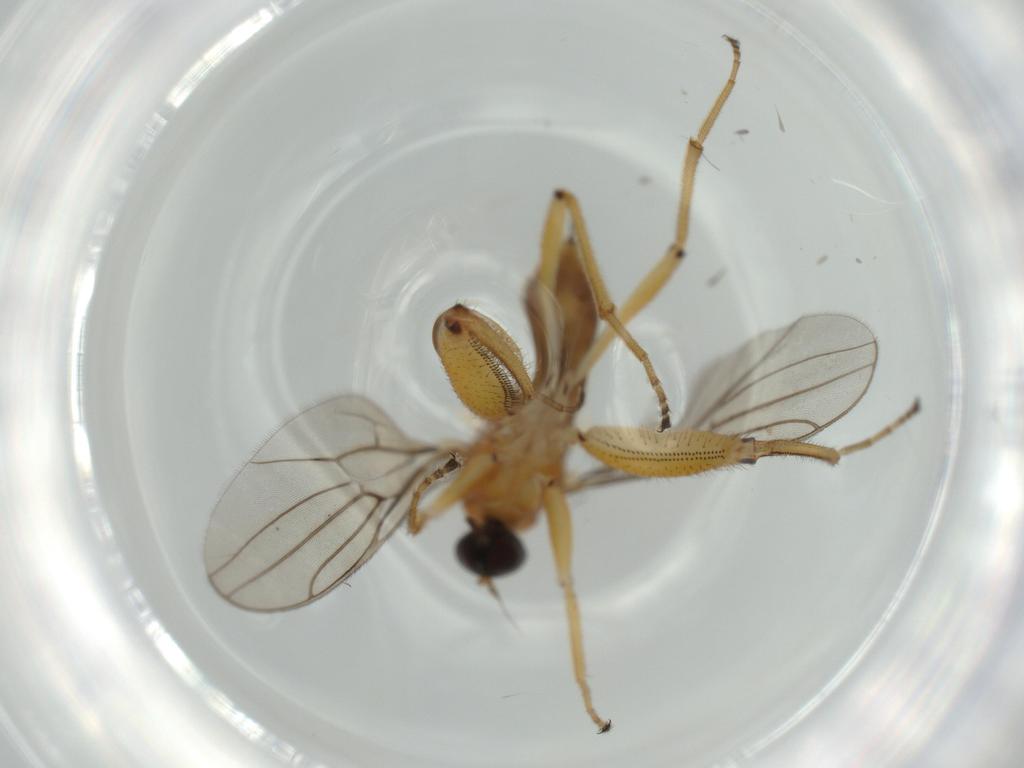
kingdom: Animalia
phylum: Arthropoda
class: Insecta
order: Diptera
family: Hybotidae
